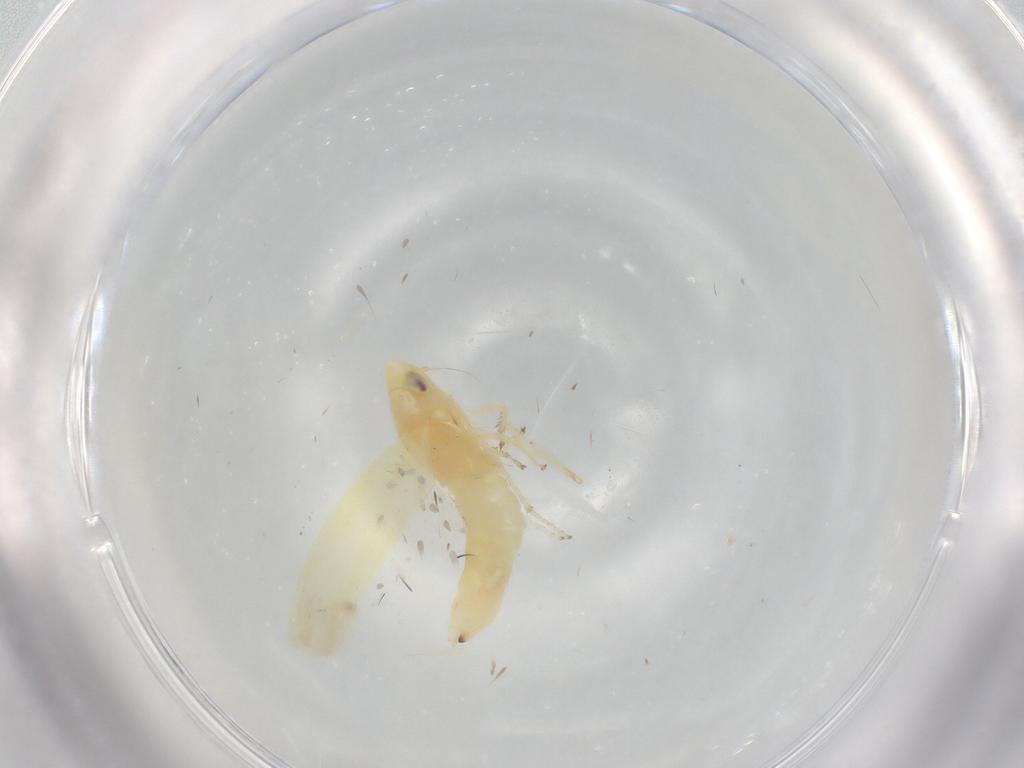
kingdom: Animalia
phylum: Arthropoda
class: Insecta
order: Hemiptera
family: Cicadellidae
